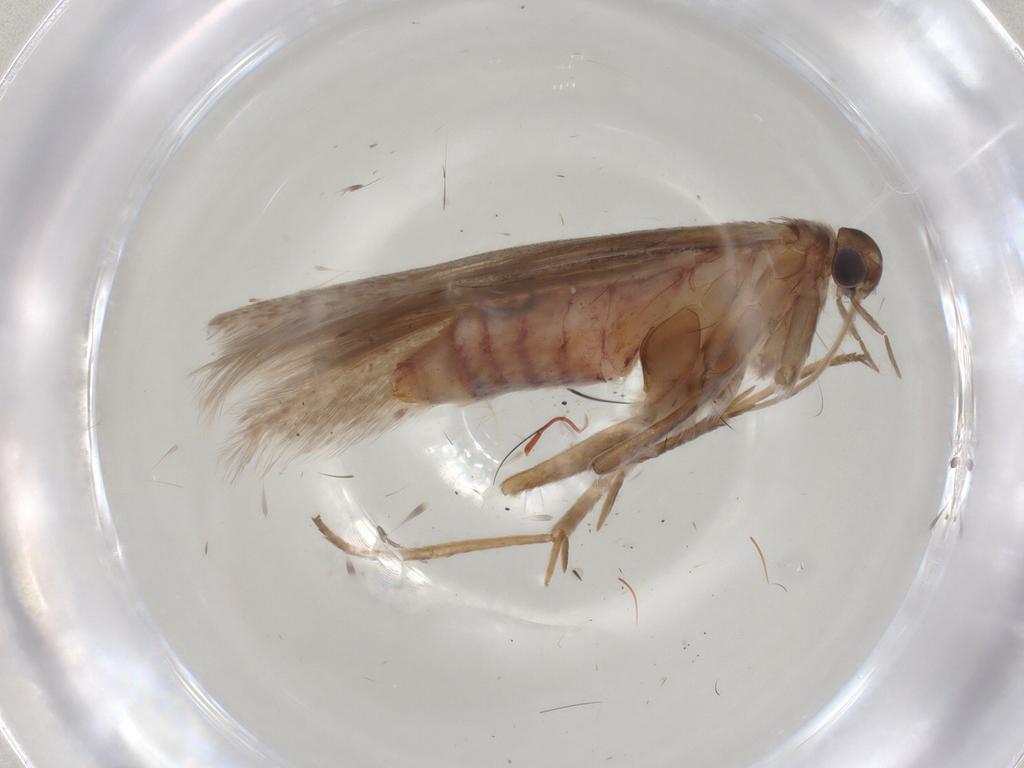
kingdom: Animalia
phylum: Arthropoda
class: Insecta
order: Lepidoptera
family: Coleophoridae
